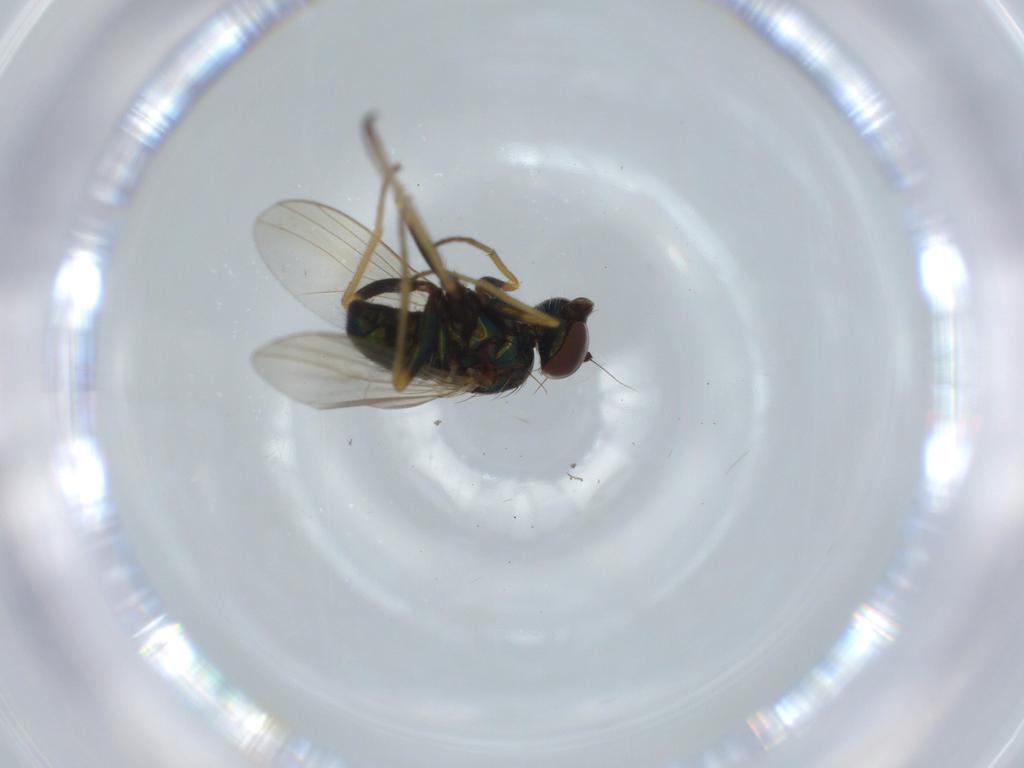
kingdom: Animalia
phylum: Arthropoda
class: Insecta
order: Diptera
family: Dolichopodidae
